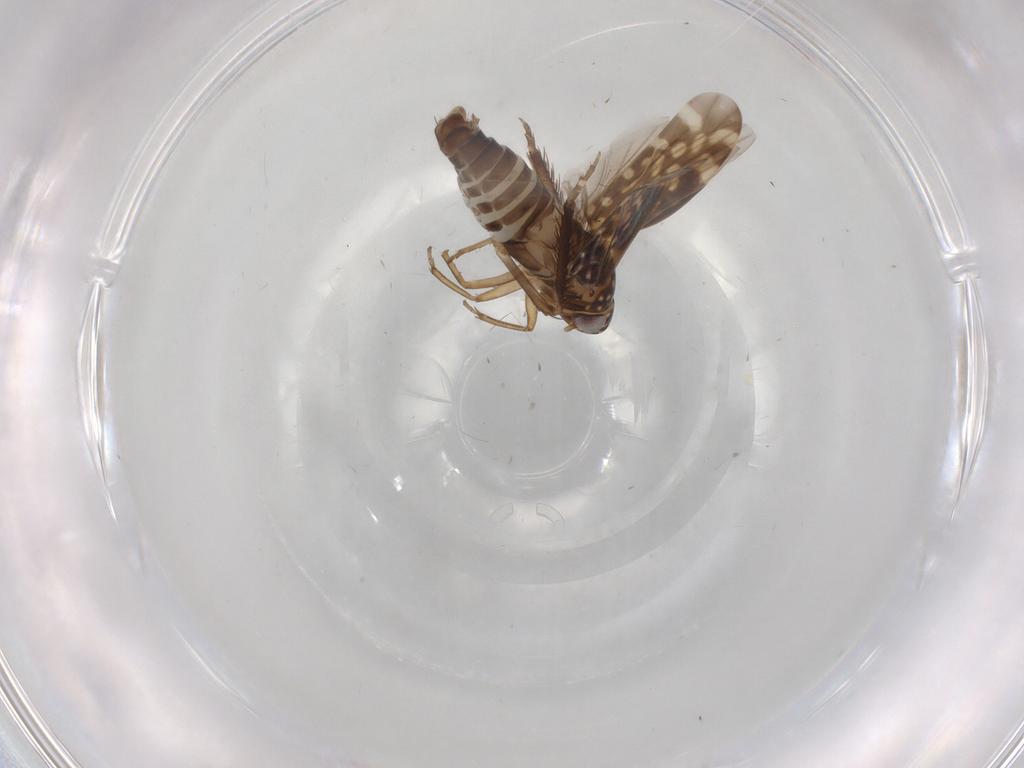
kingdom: Animalia
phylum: Arthropoda
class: Insecta
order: Hemiptera
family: Cicadellidae
